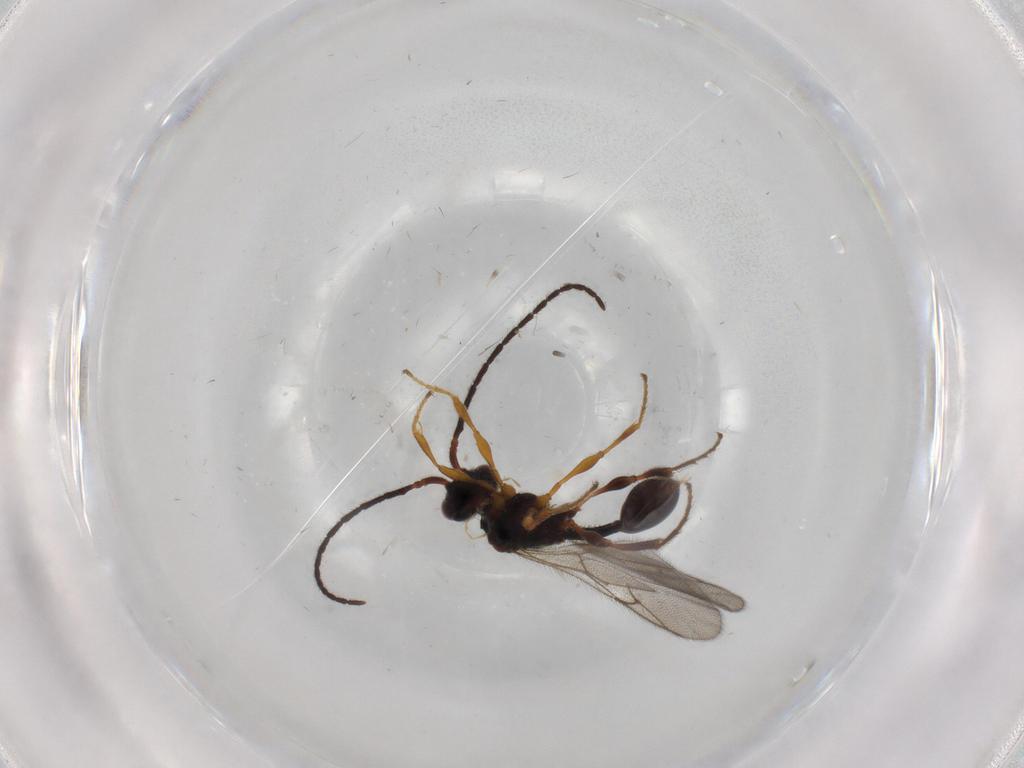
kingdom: Animalia
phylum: Arthropoda
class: Insecta
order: Hymenoptera
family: Diapriidae
